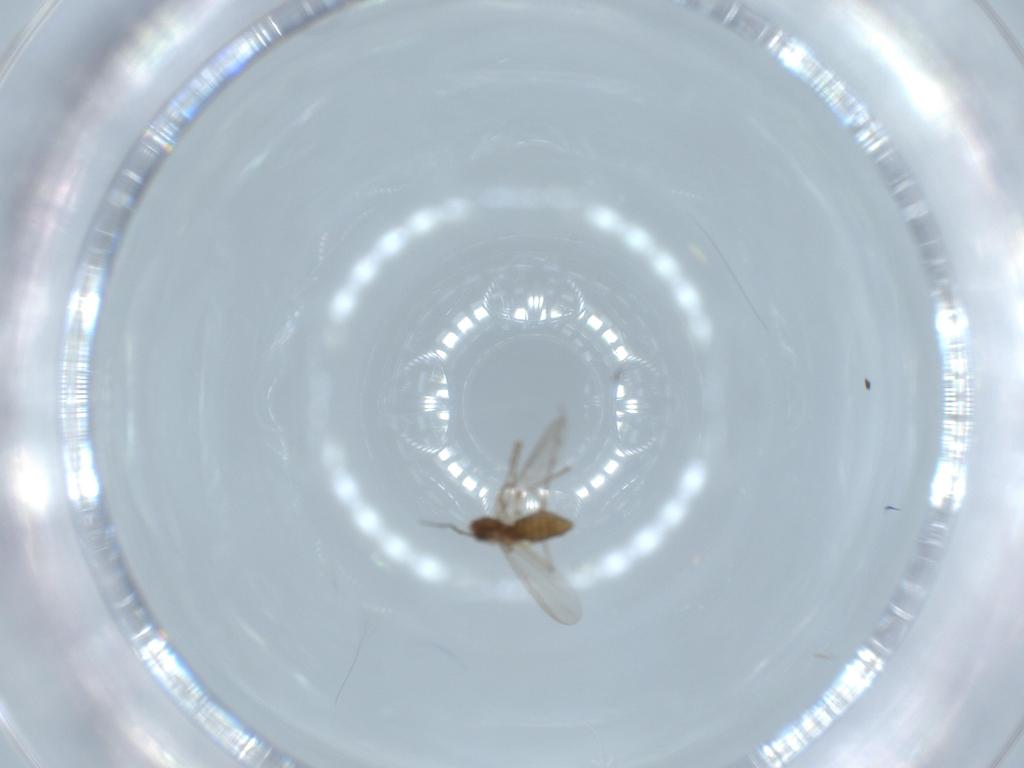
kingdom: Animalia
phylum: Arthropoda
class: Insecta
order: Diptera
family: Chironomidae
